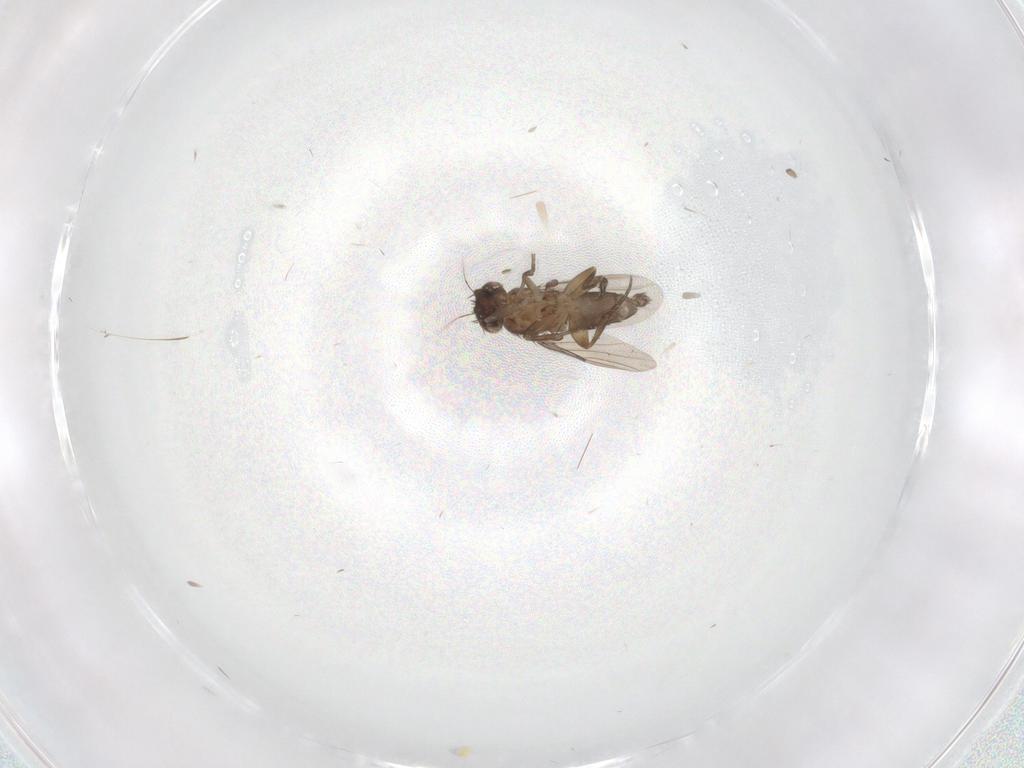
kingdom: Animalia
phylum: Arthropoda
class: Insecta
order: Diptera
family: Phoridae
